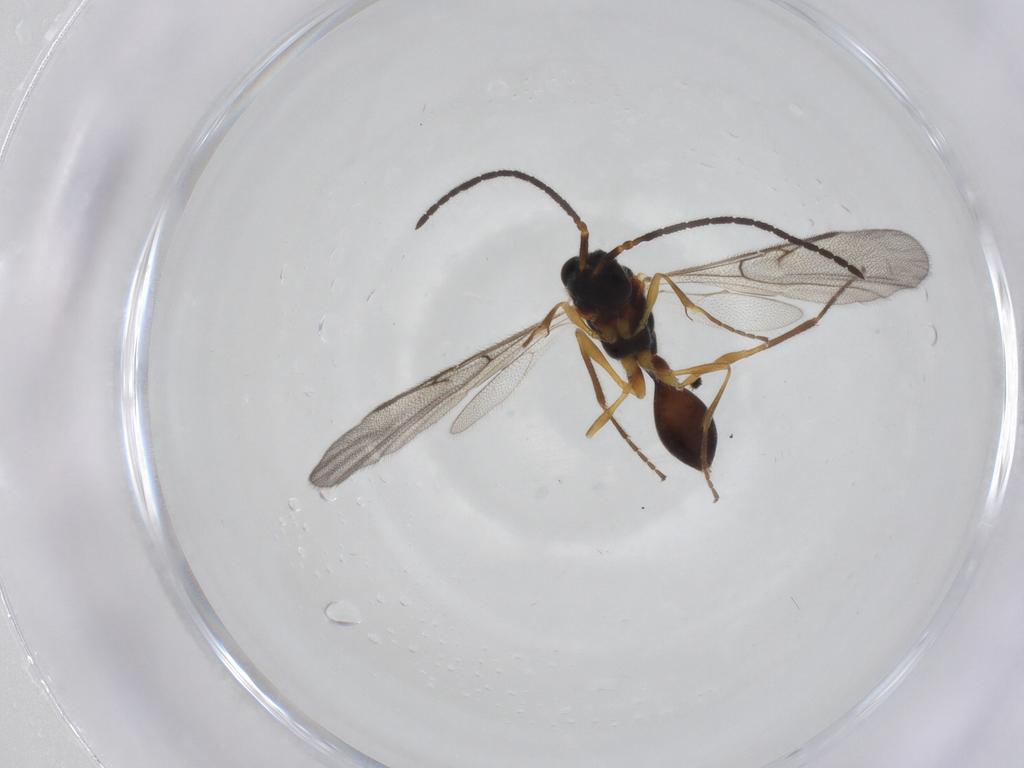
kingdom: Animalia
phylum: Arthropoda
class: Insecta
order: Hymenoptera
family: Diapriidae
